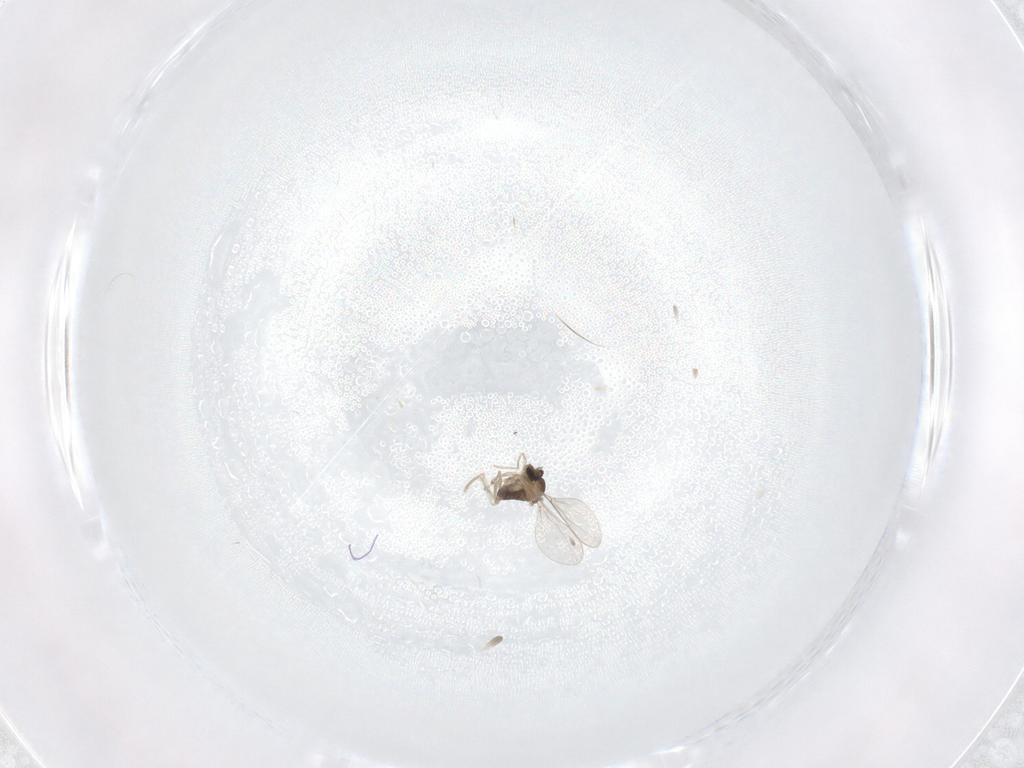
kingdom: Animalia
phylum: Arthropoda
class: Insecta
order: Diptera
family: Cecidomyiidae
